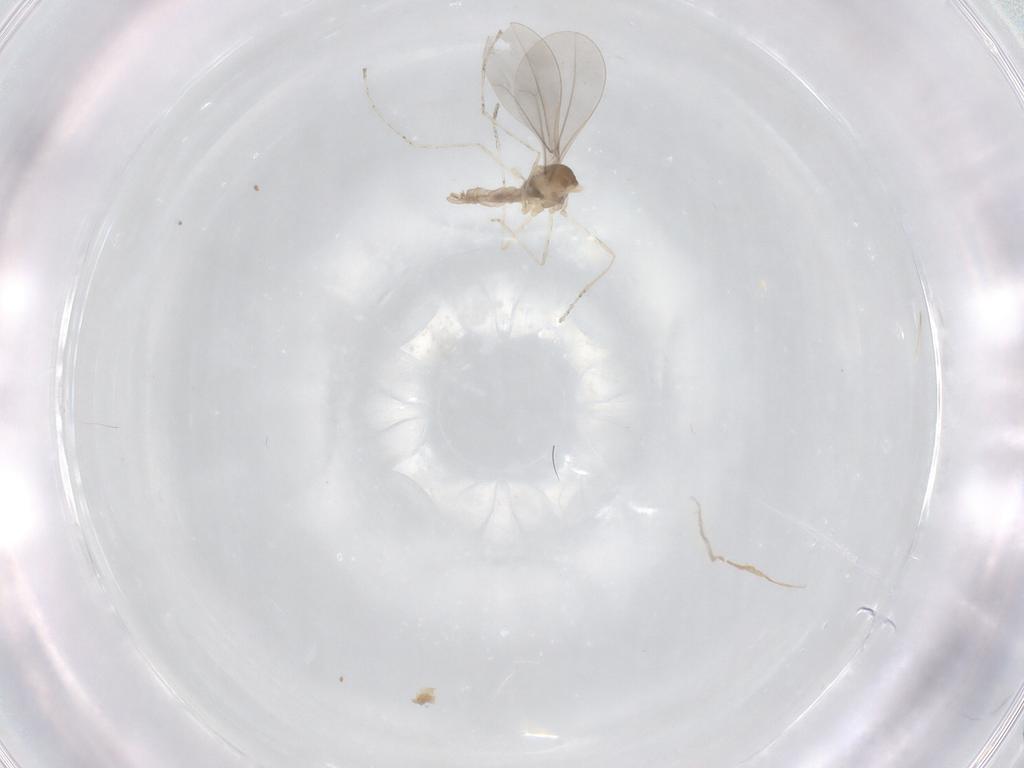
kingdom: Animalia
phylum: Arthropoda
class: Insecta
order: Diptera
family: Cecidomyiidae
